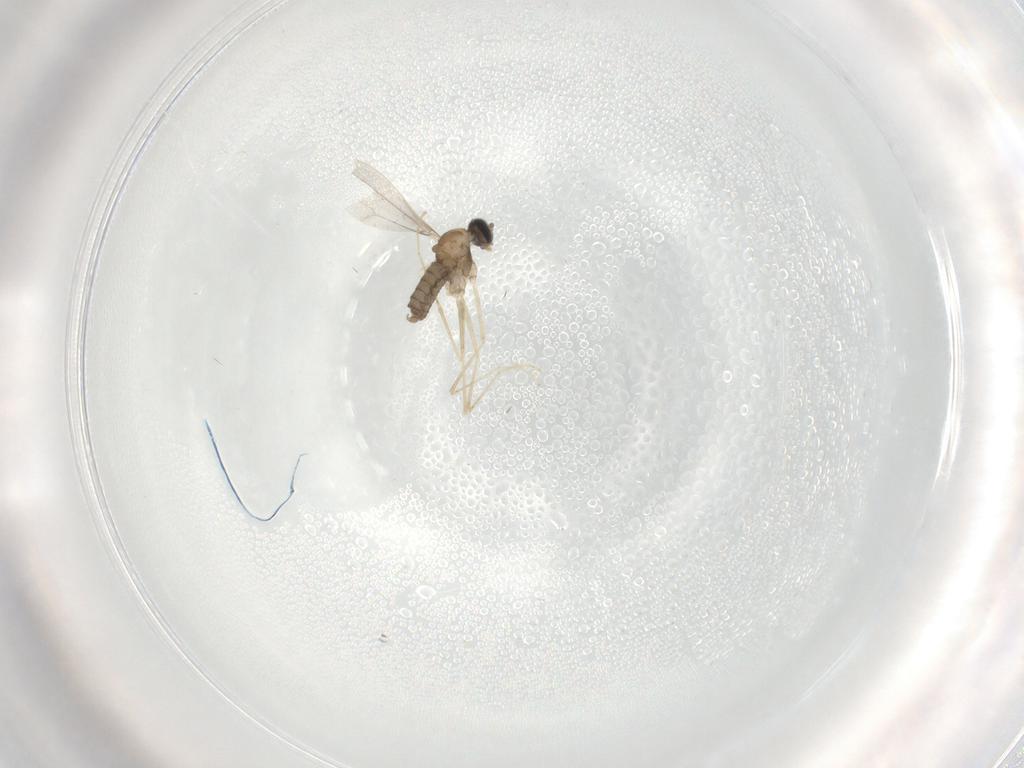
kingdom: Animalia
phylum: Arthropoda
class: Insecta
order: Diptera
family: Cecidomyiidae
